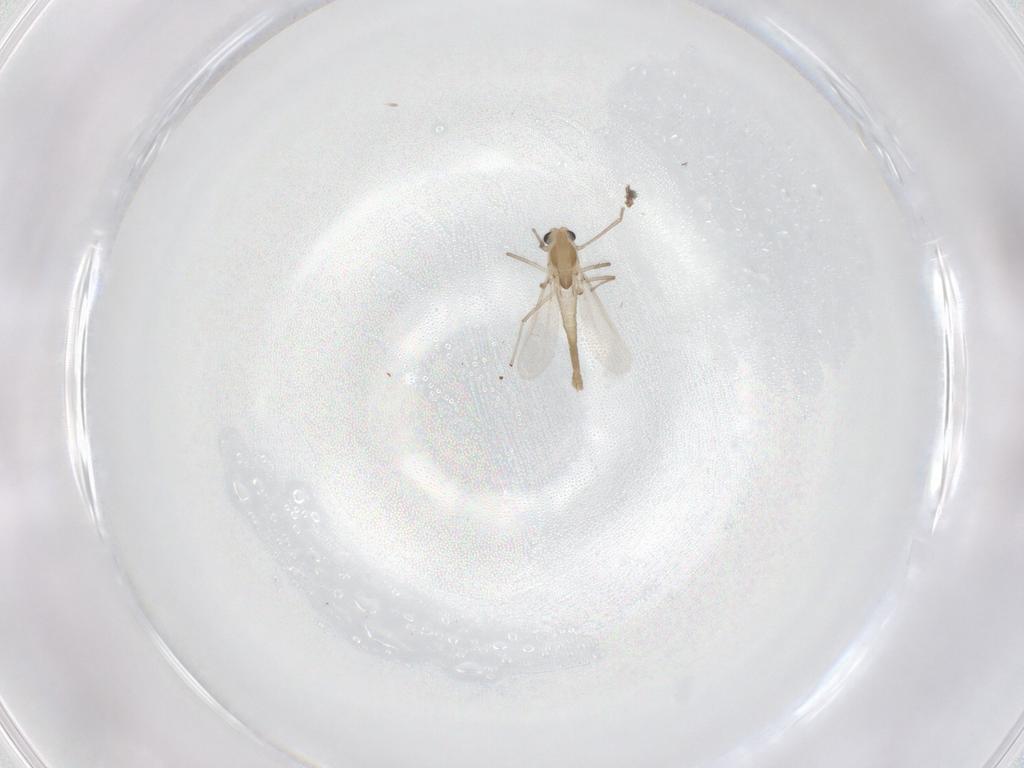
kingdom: Animalia
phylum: Arthropoda
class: Insecta
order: Diptera
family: Chironomidae
